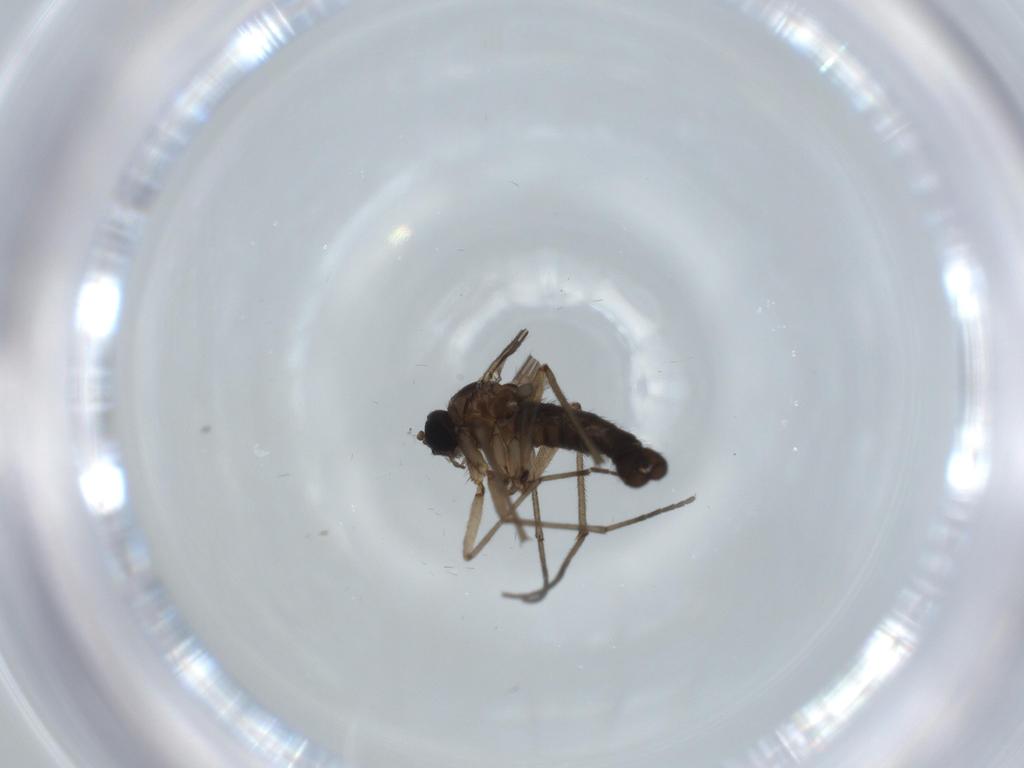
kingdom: Animalia
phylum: Arthropoda
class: Insecta
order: Diptera
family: Sciaridae
